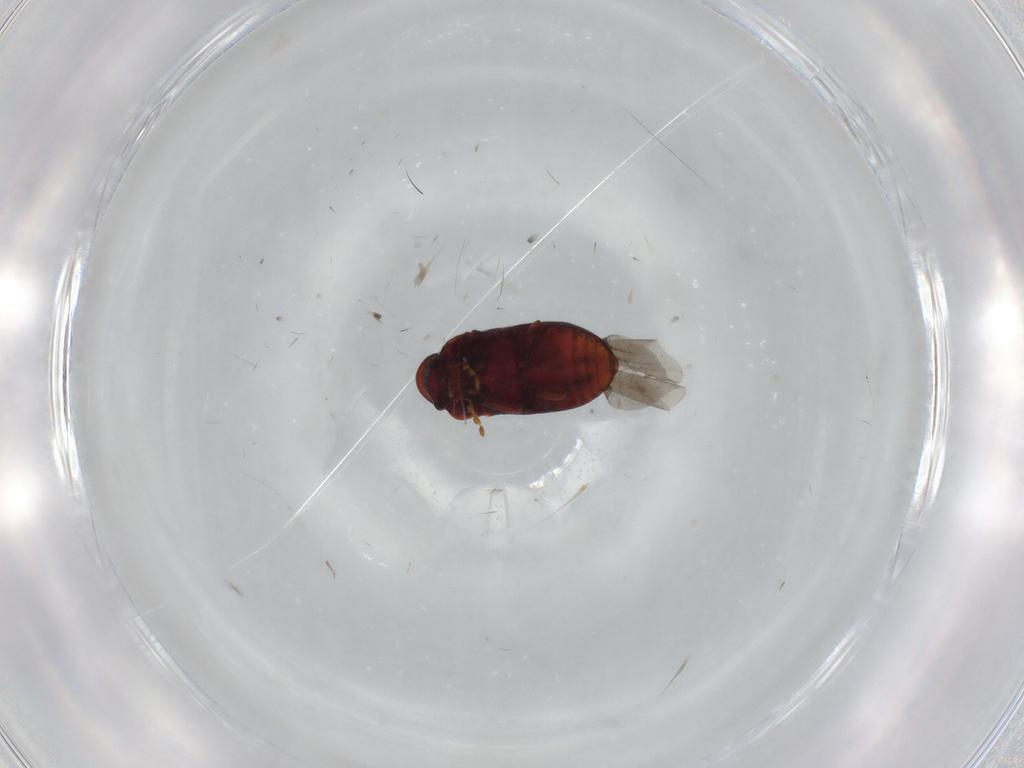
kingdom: Animalia
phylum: Arthropoda
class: Insecta
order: Coleoptera
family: Ptinidae
